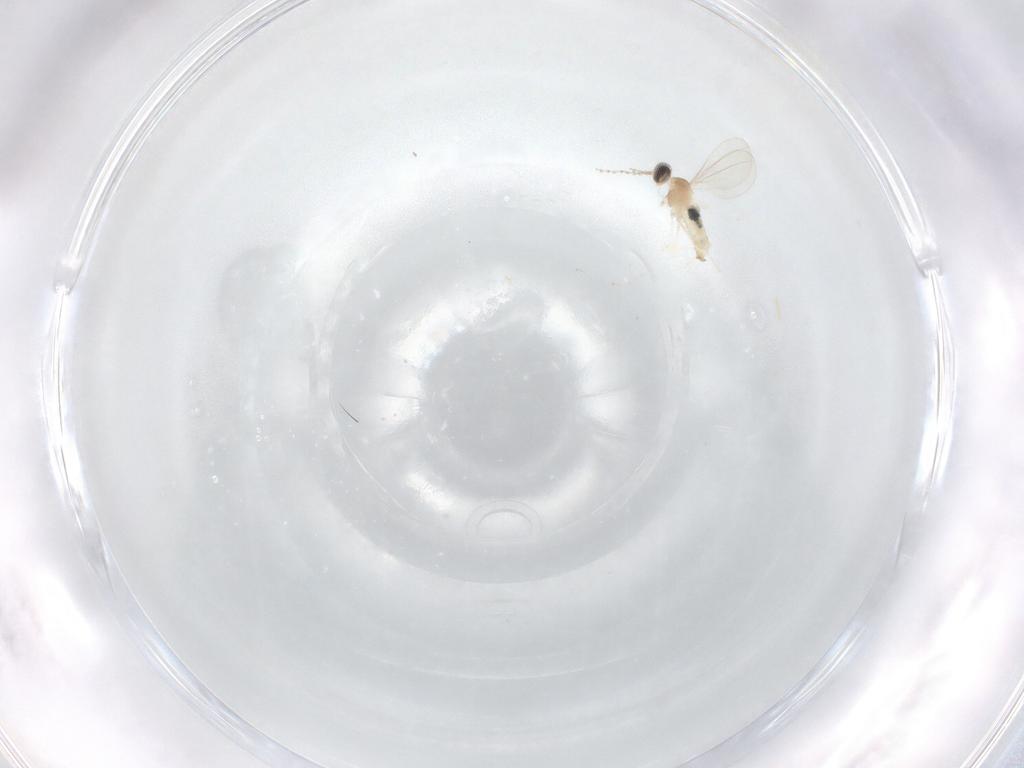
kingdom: Animalia
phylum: Arthropoda
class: Insecta
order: Diptera
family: Cecidomyiidae
